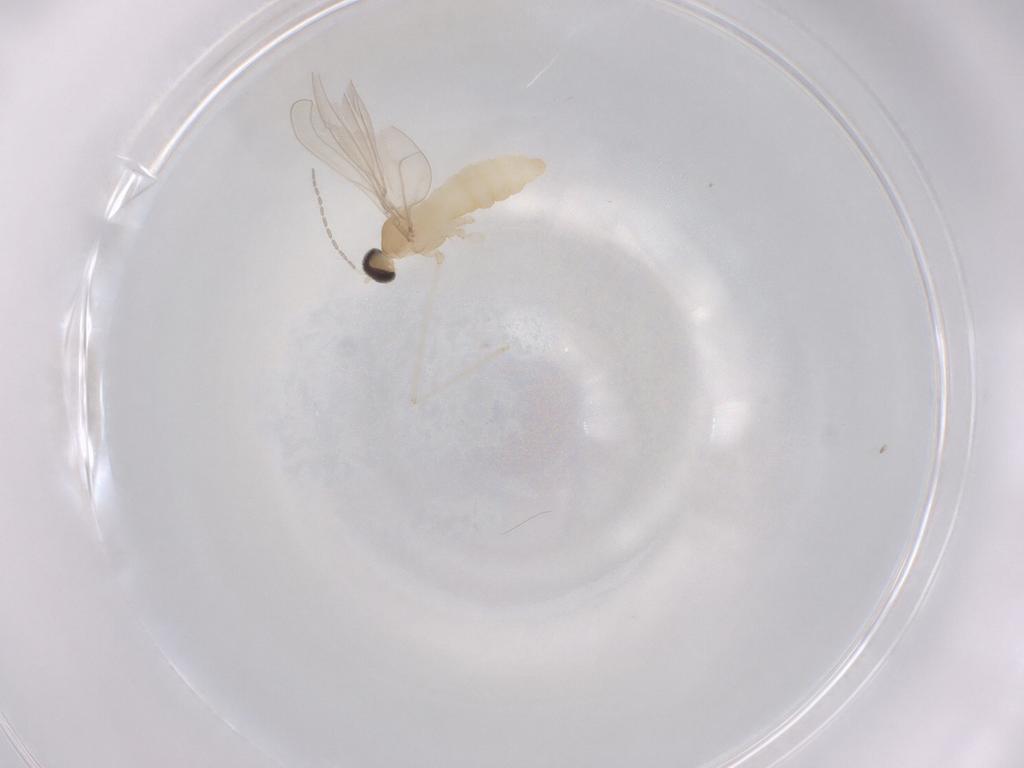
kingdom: Animalia
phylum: Arthropoda
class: Insecta
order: Diptera
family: Cecidomyiidae
